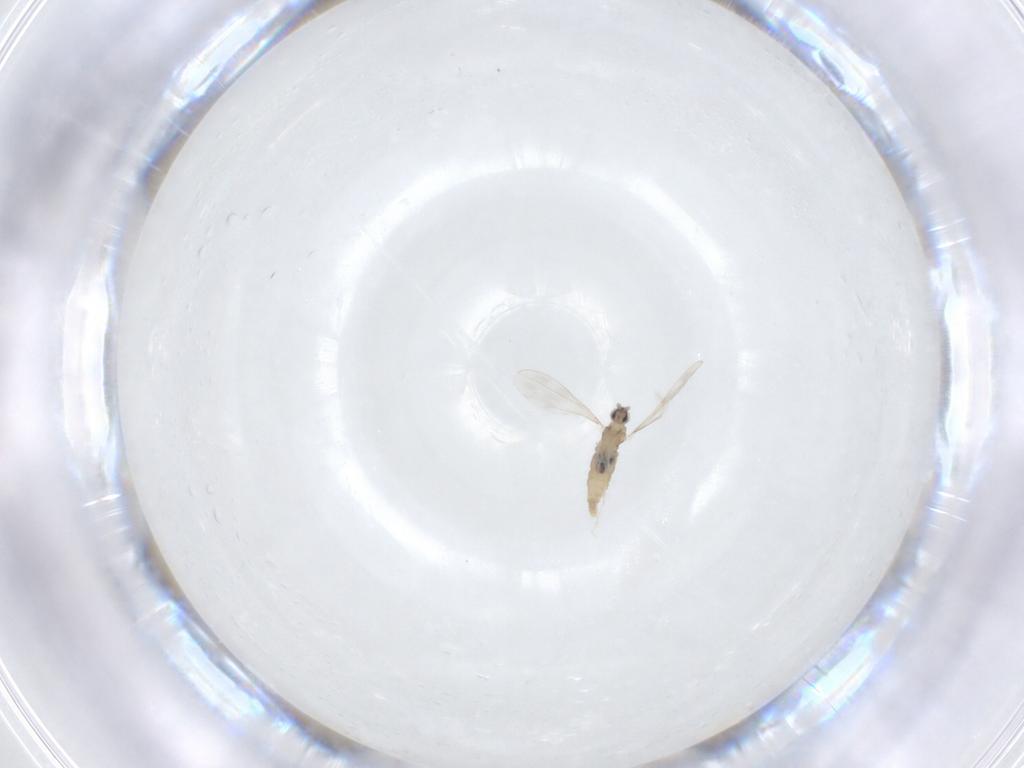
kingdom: Animalia
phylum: Arthropoda
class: Insecta
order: Diptera
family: Cecidomyiidae
